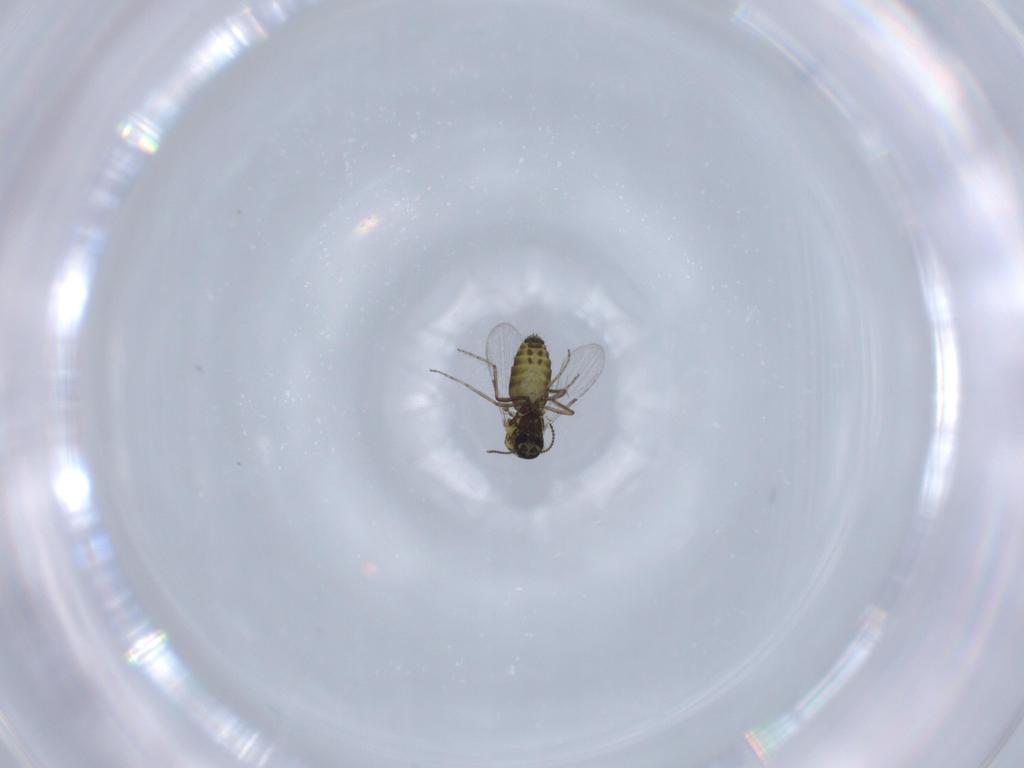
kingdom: Animalia
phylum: Arthropoda
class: Insecta
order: Diptera
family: Ceratopogonidae
